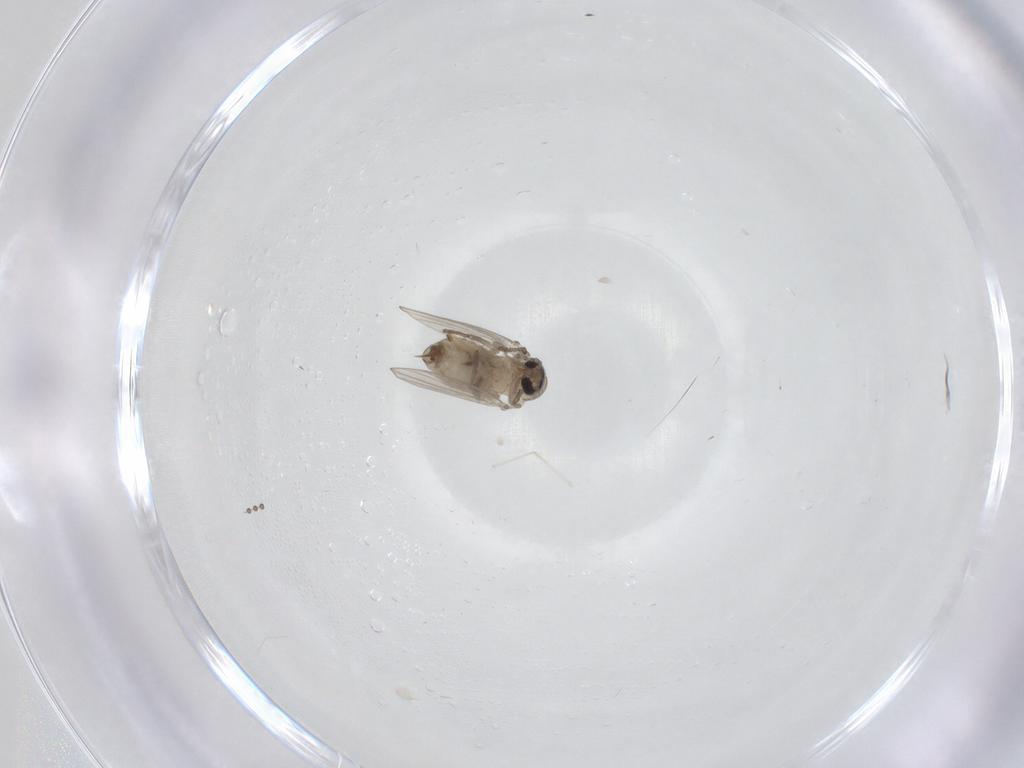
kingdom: Animalia
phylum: Arthropoda
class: Insecta
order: Diptera
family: Psychodidae
